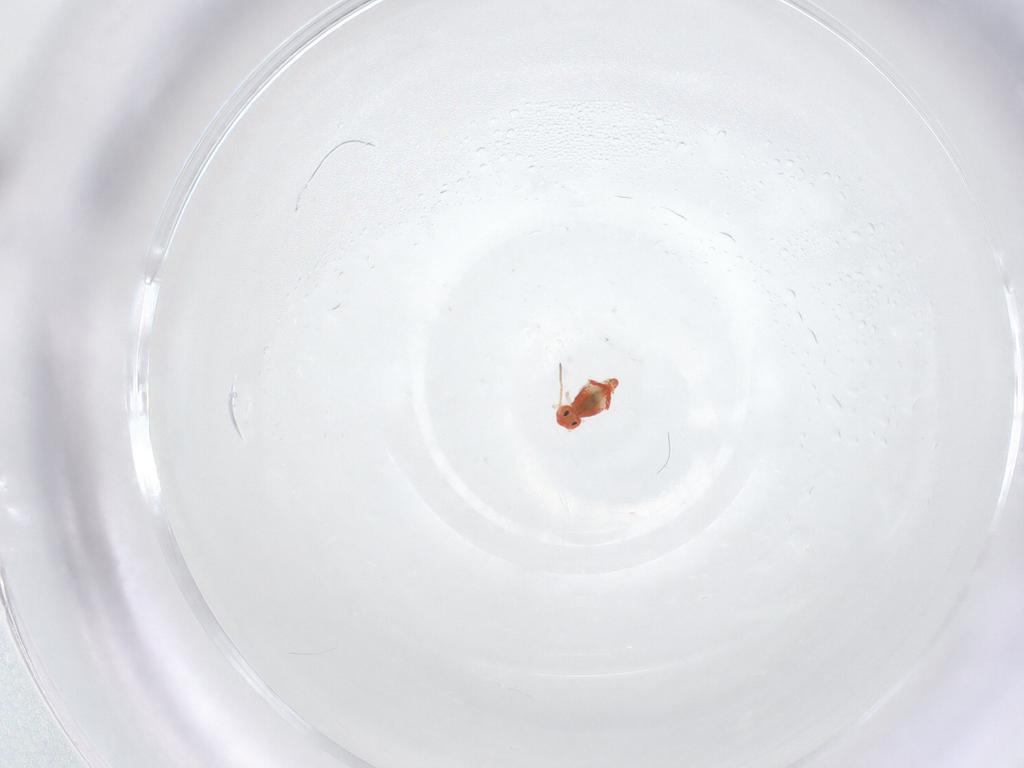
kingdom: Animalia
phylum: Arthropoda
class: Collembola
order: Symphypleona
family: Bourletiellidae
